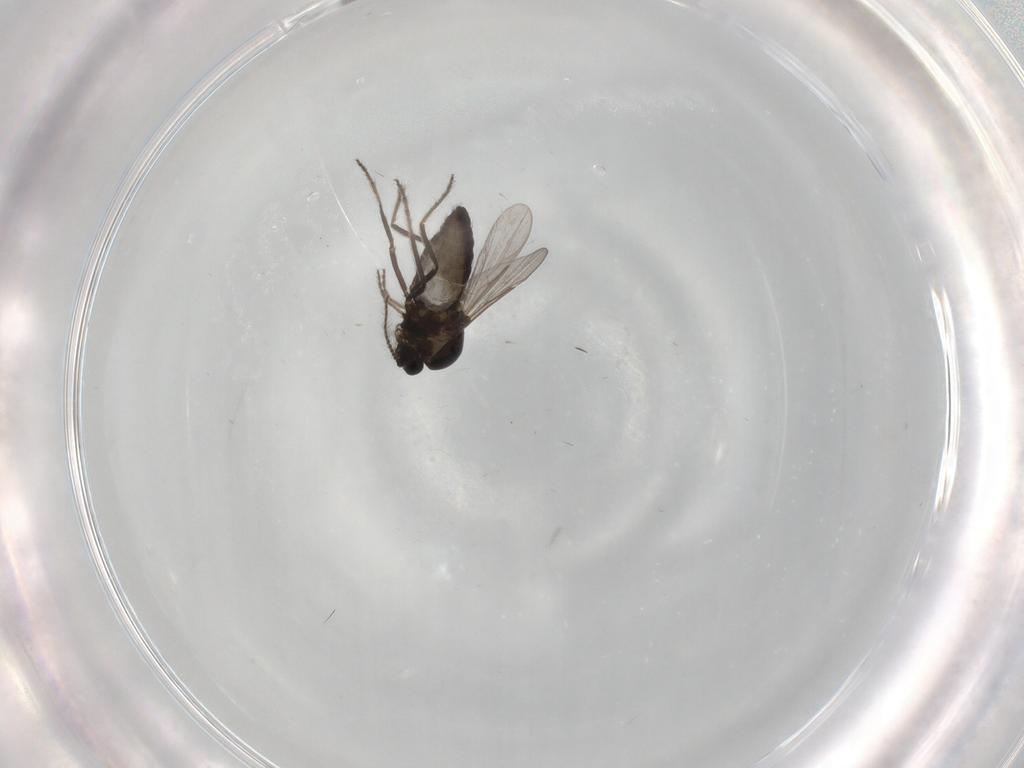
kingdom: Animalia
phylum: Arthropoda
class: Insecta
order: Diptera
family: Ceratopogonidae
